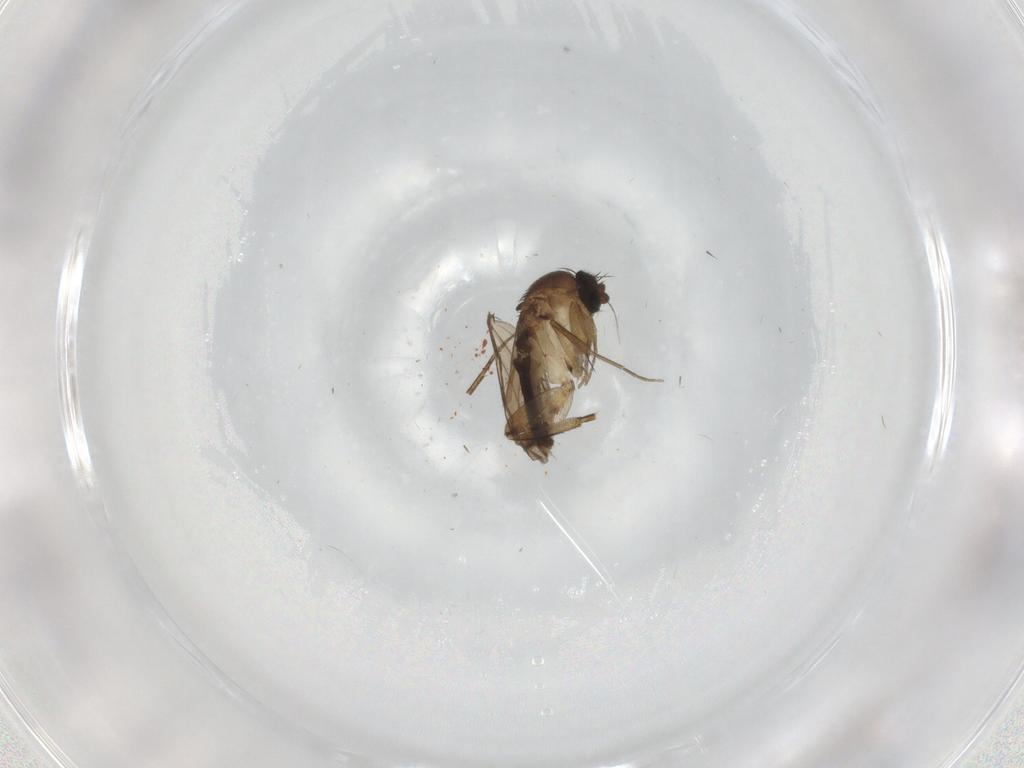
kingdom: Animalia
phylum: Arthropoda
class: Insecta
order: Diptera
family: Phoridae
